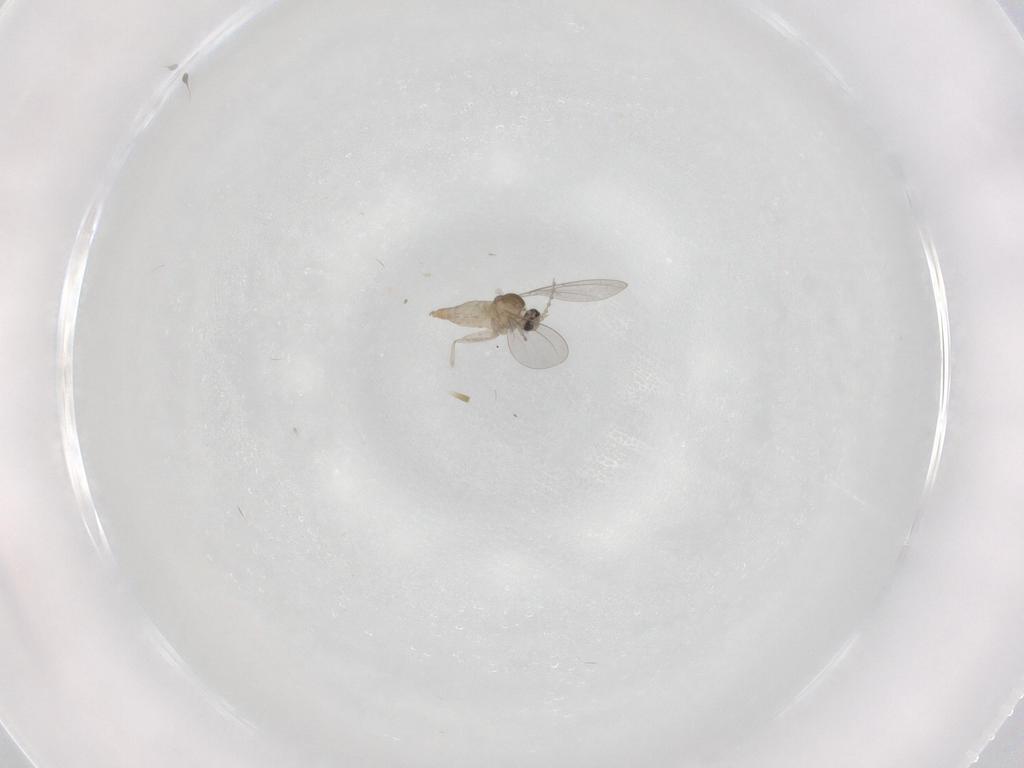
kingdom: Animalia
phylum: Arthropoda
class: Insecta
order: Diptera
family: Cecidomyiidae
